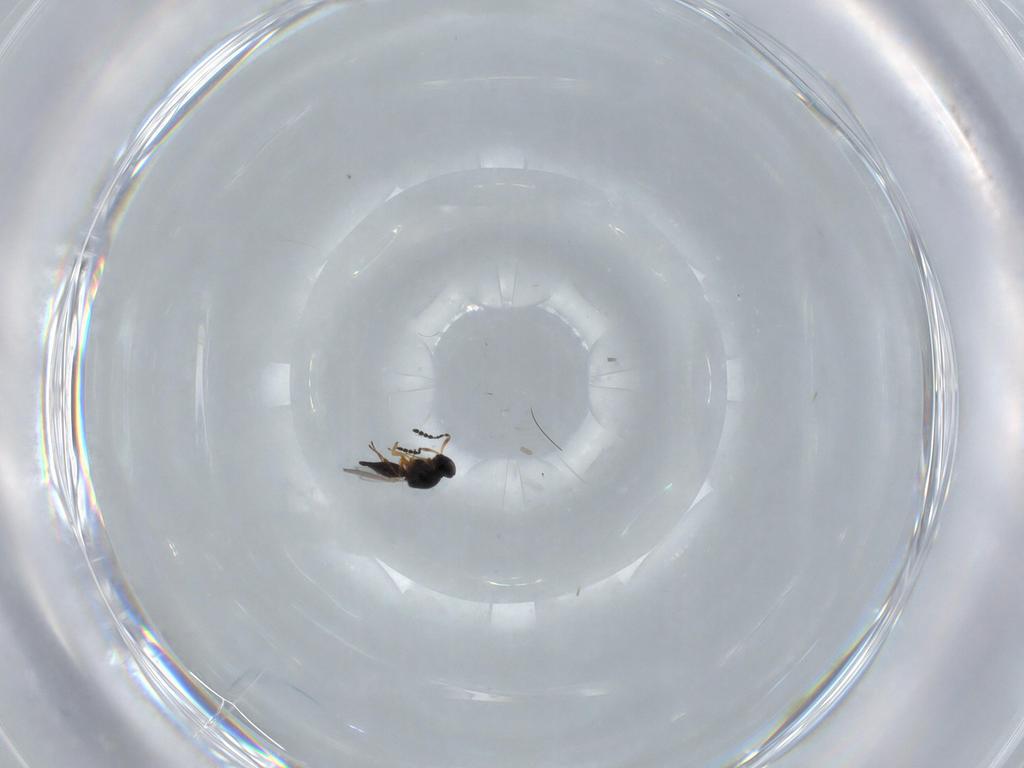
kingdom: Animalia
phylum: Arthropoda
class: Insecta
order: Hymenoptera
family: Platygastridae
